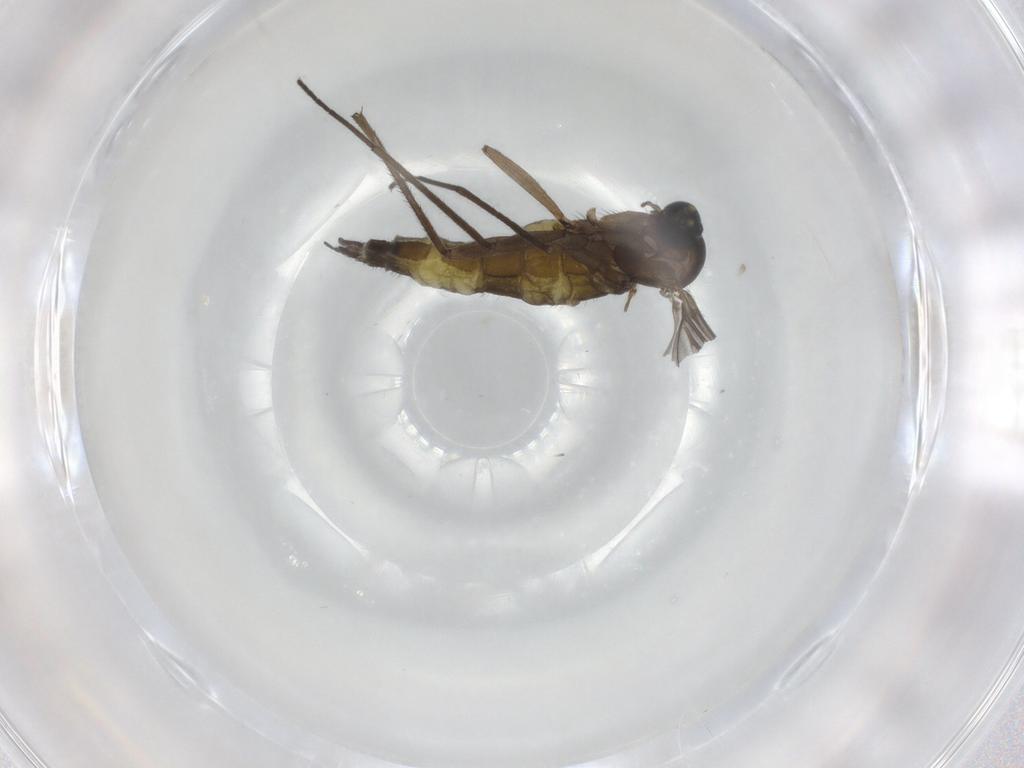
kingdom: Animalia
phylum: Arthropoda
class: Insecta
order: Diptera
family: Sciaridae
